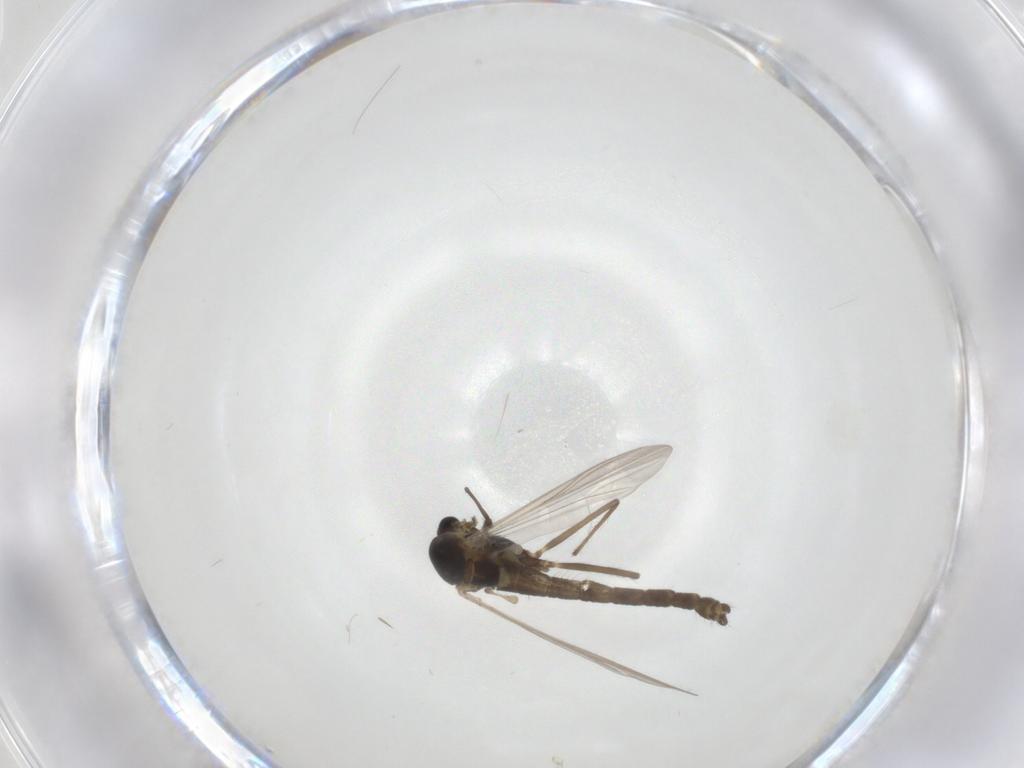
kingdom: Animalia
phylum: Arthropoda
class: Insecta
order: Diptera
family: Chironomidae
